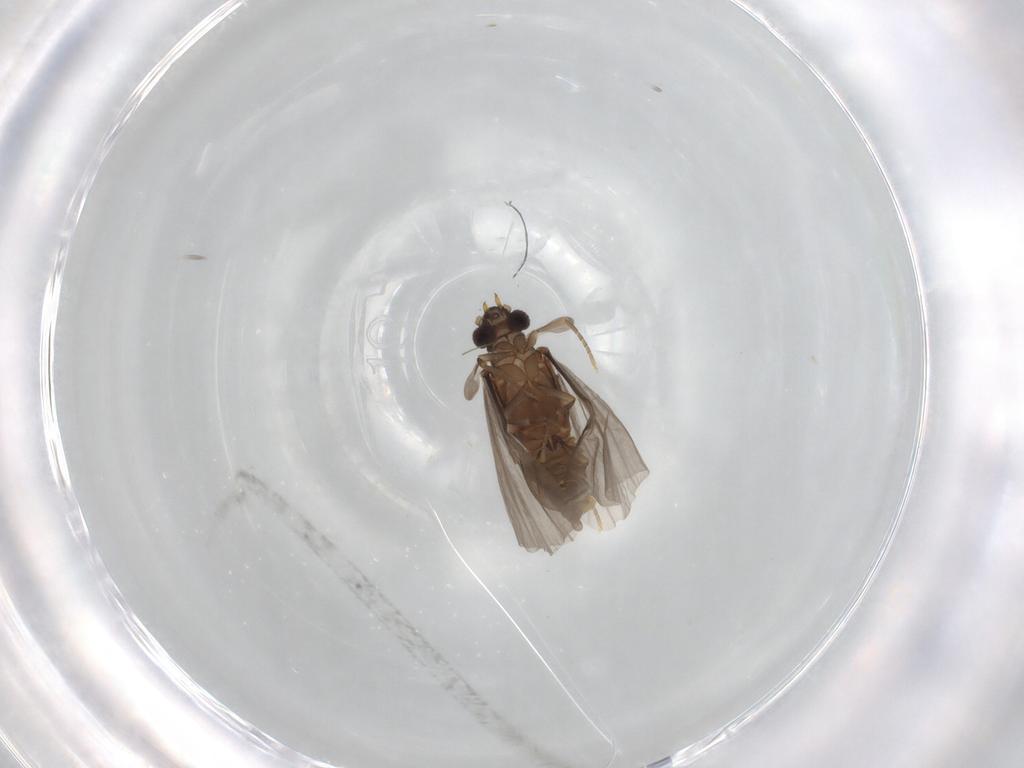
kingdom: Animalia
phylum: Arthropoda
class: Insecta
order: Strepsiptera
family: Mengenillidae
